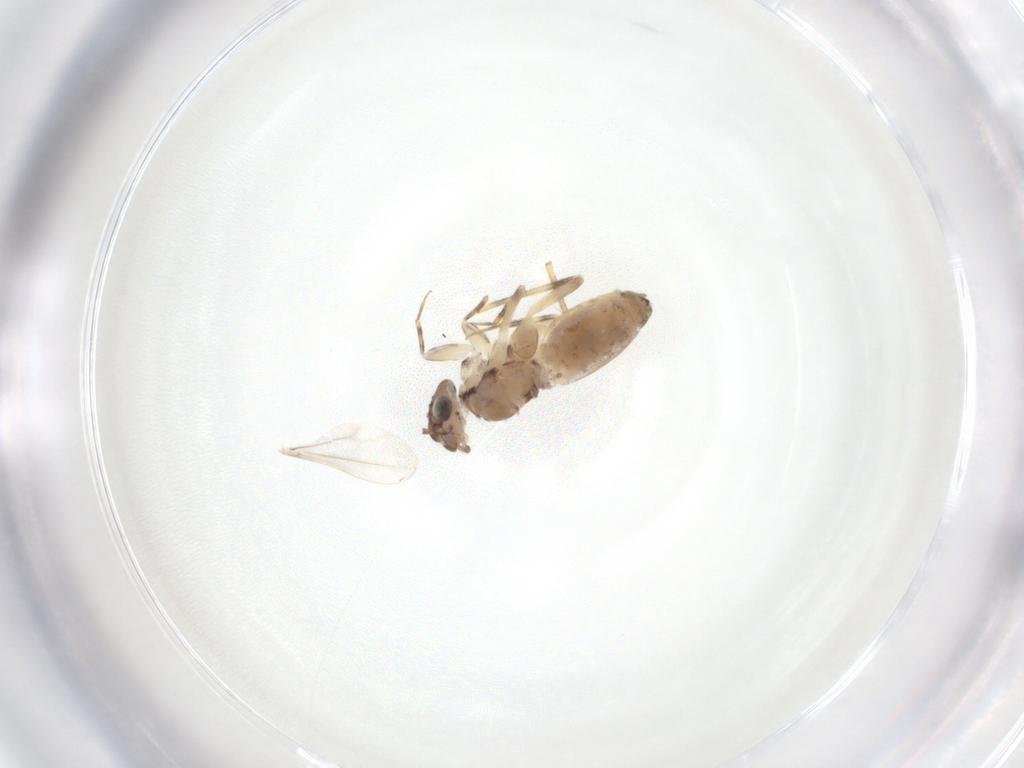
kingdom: Animalia
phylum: Arthropoda
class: Insecta
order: Psocodea
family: Lepidopsocidae
